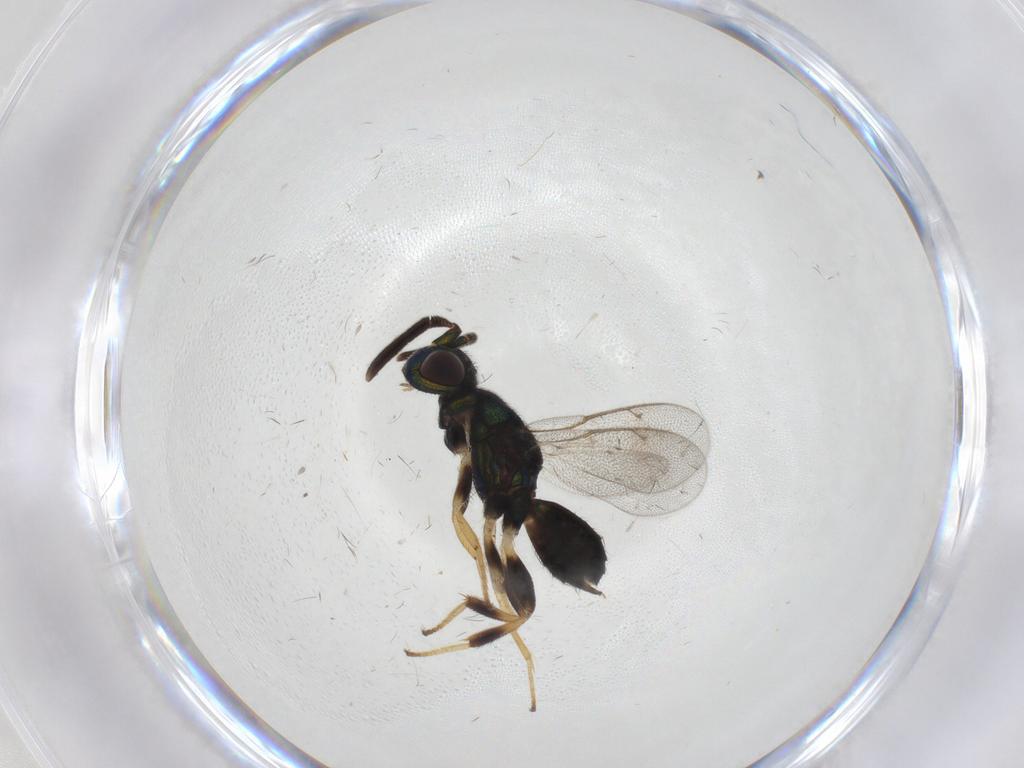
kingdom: Animalia
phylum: Arthropoda
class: Insecta
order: Hymenoptera
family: Eupelmidae
